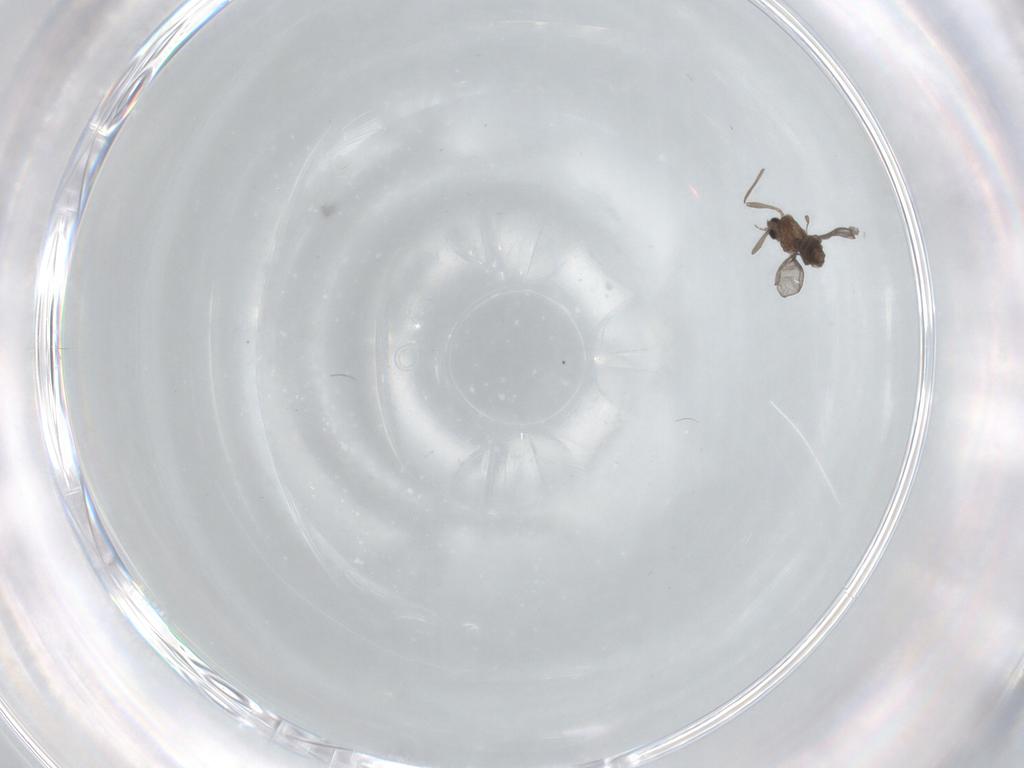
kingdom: Animalia
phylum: Arthropoda
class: Insecta
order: Diptera
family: Chironomidae
